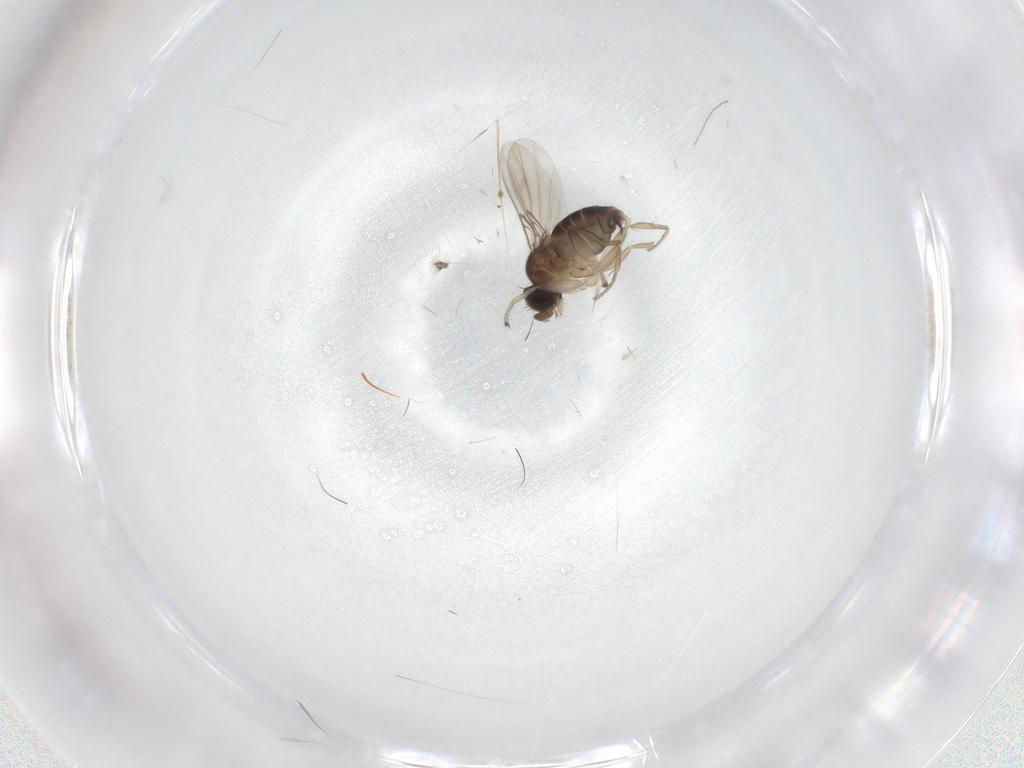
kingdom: Animalia
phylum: Arthropoda
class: Insecta
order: Diptera
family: Phoridae
